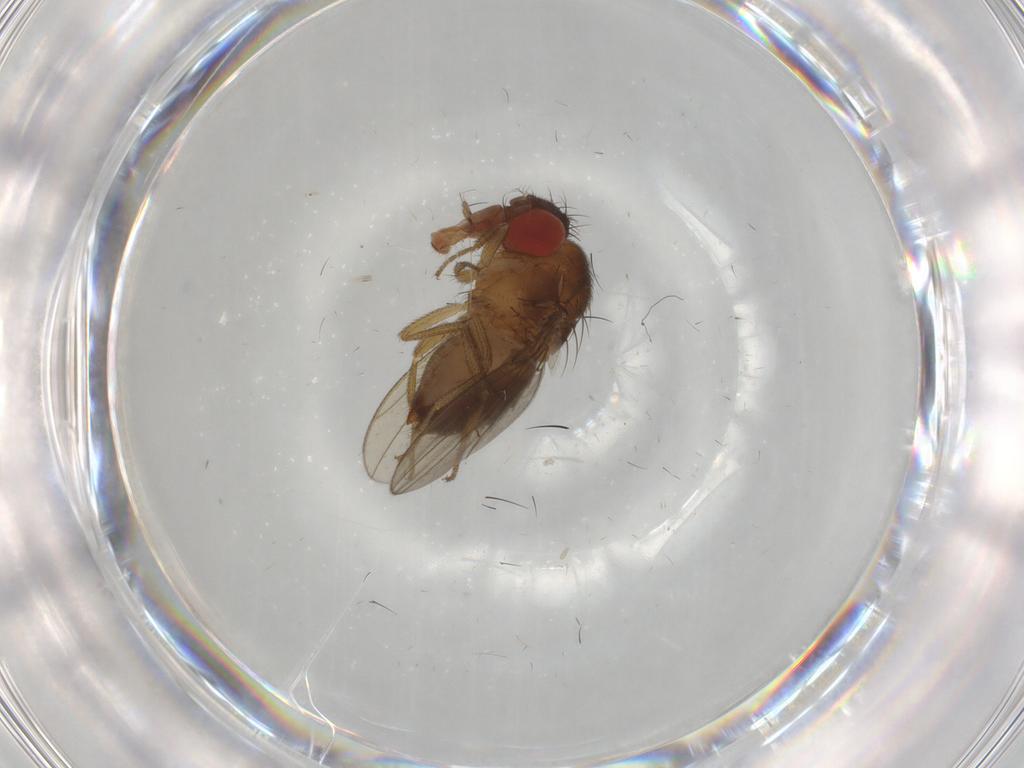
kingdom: Animalia
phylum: Arthropoda
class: Insecta
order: Diptera
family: Drosophilidae
